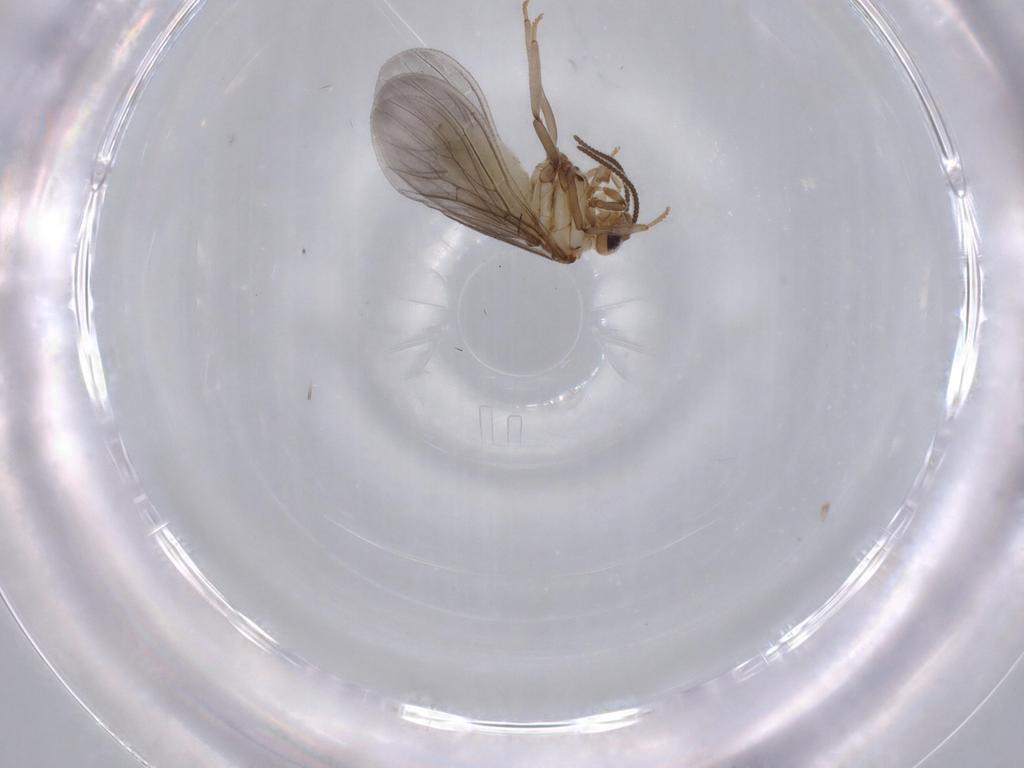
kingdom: Animalia
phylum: Arthropoda
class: Insecta
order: Neuroptera
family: Coniopterygidae
